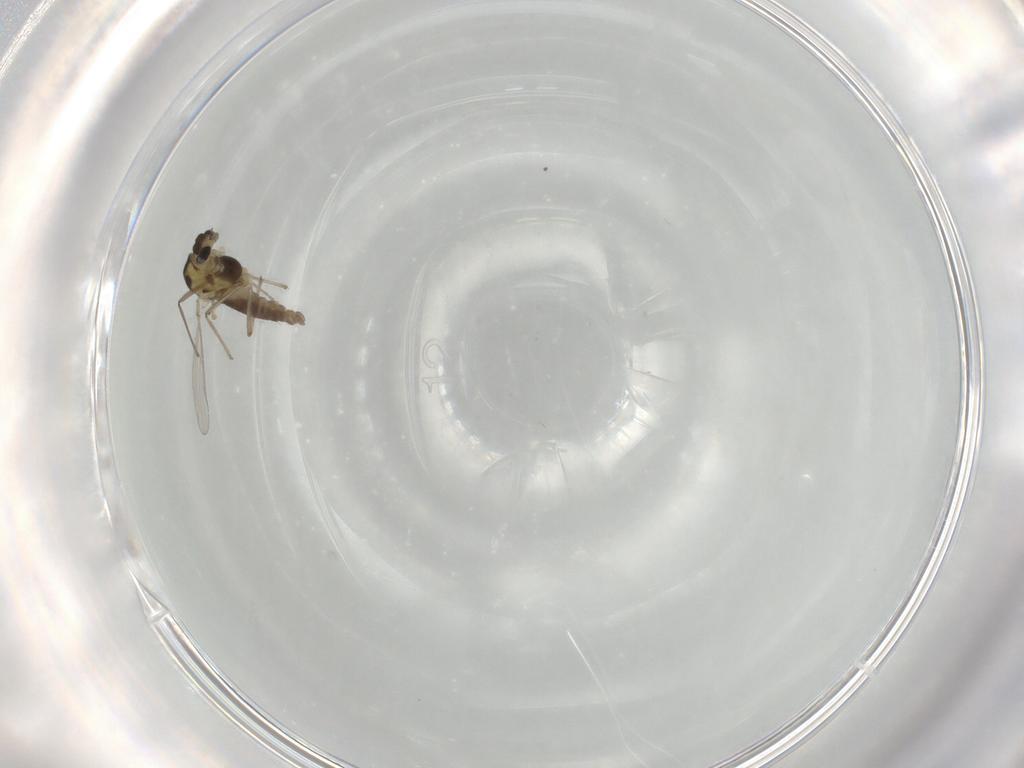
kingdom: Animalia
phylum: Arthropoda
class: Insecta
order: Diptera
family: Chironomidae
